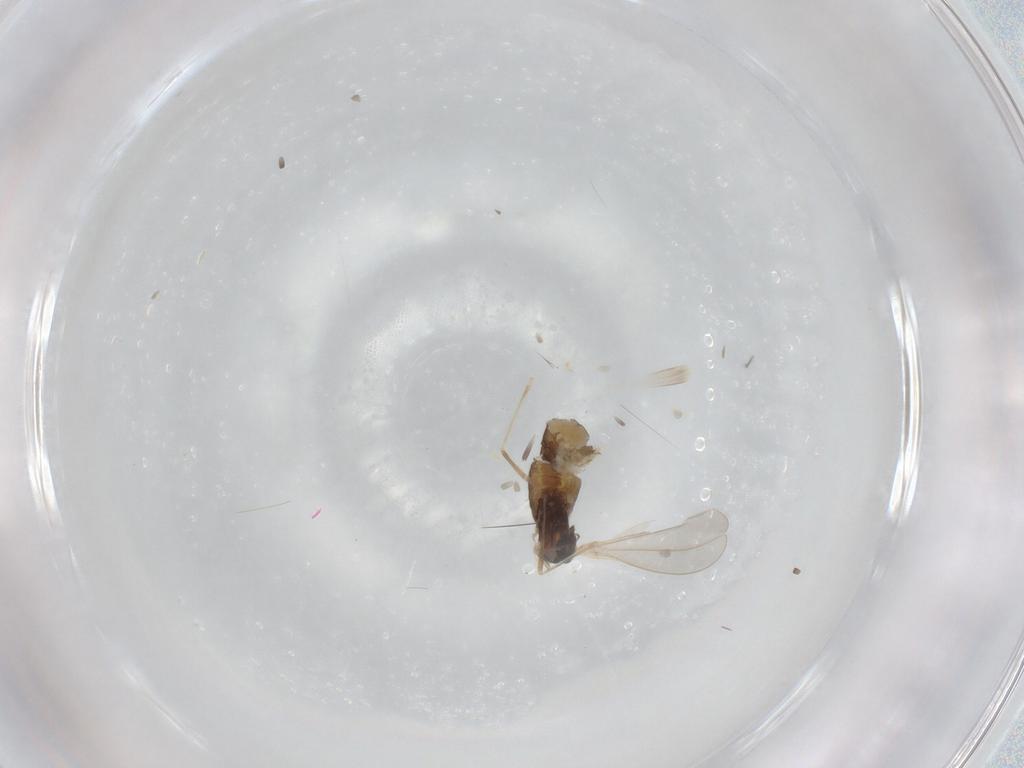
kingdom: Animalia
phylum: Arthropoda
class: Insecta
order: Diptera
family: Cecidomyiidae
